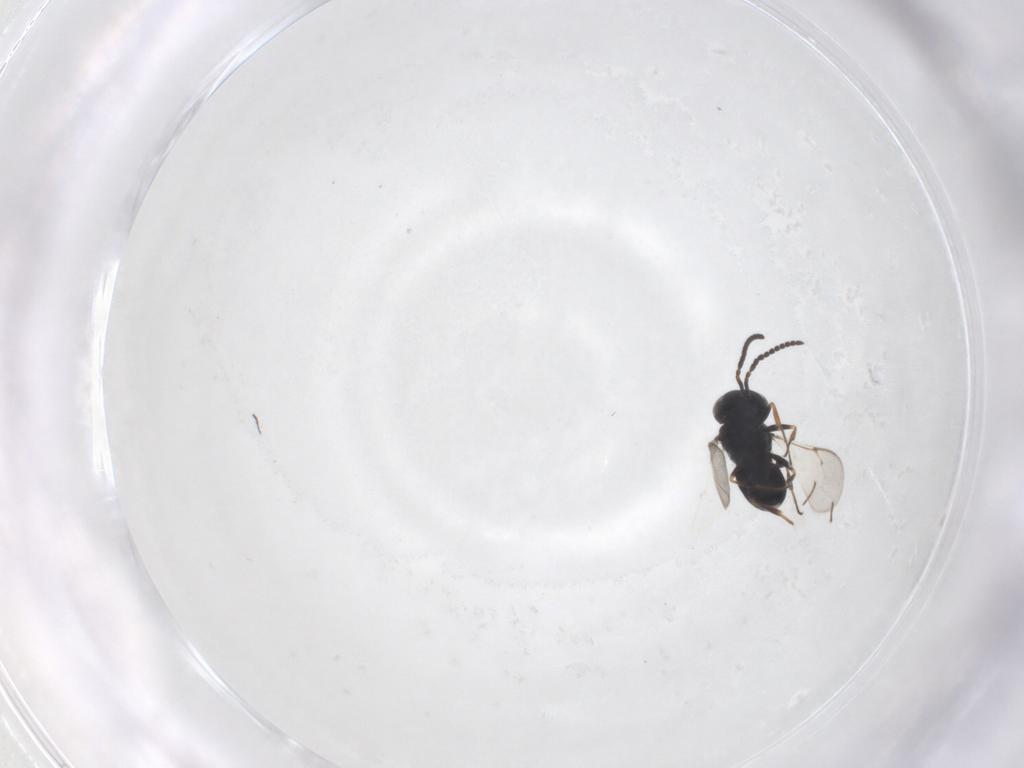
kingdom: Animalia
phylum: Arthropoda
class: Insecta
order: Hymenoptera
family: Scelionidae
